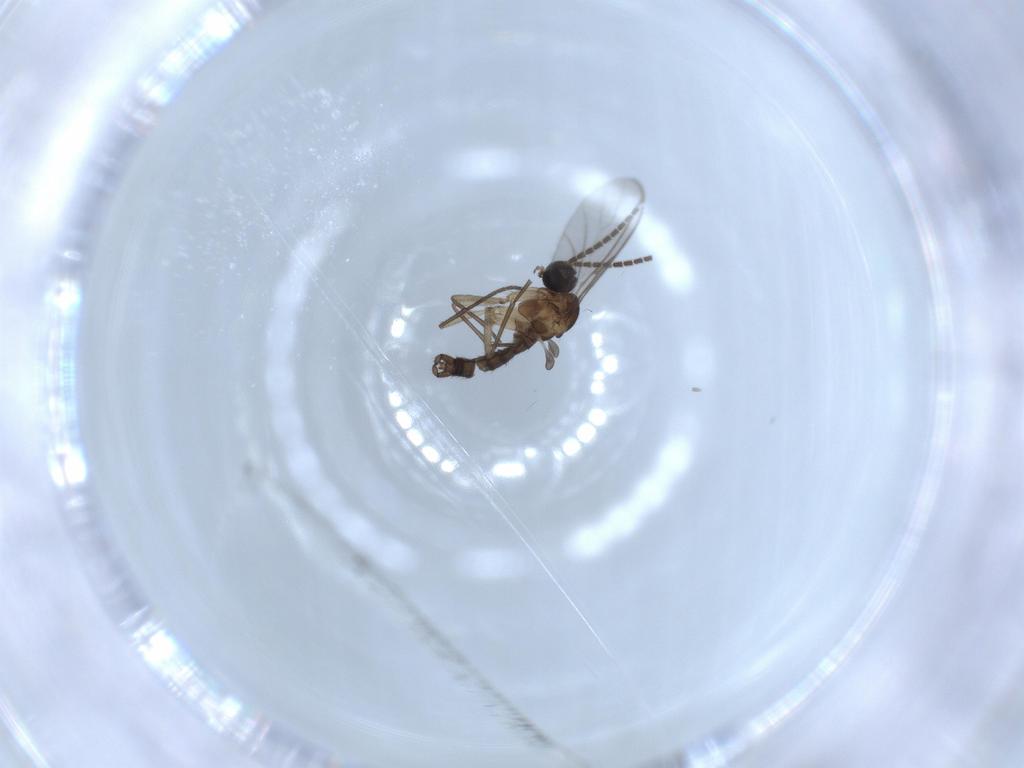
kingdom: Animalia
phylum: Arthropoda
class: Insecta
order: Diptera
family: Sciaridae
